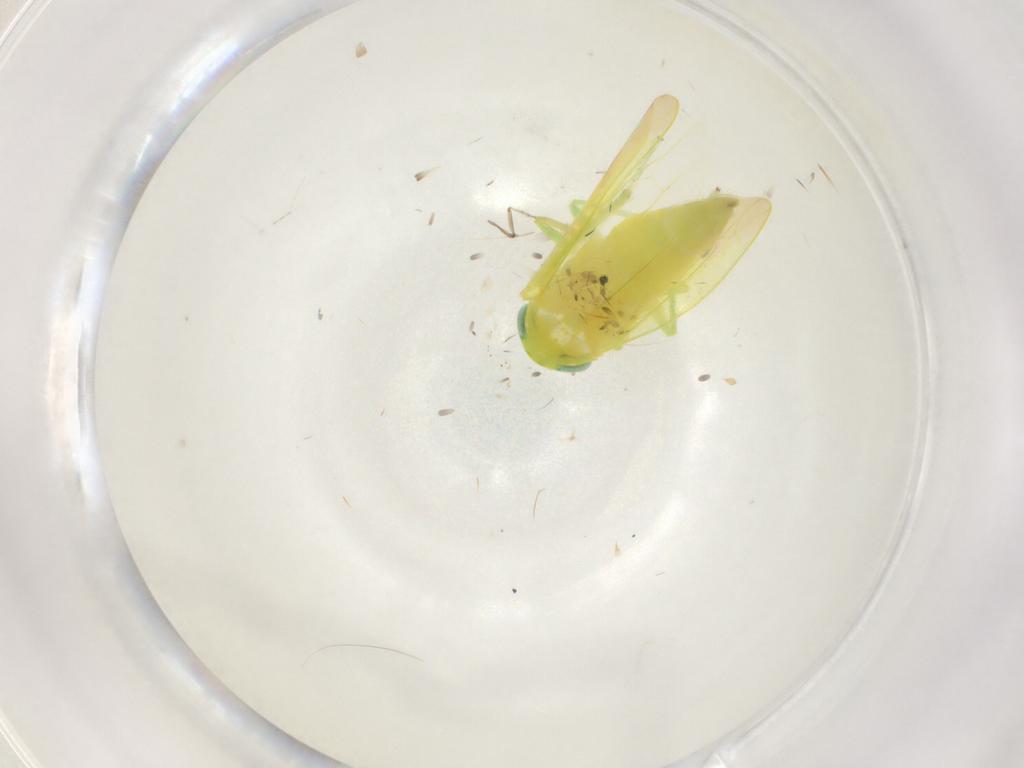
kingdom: Animalia
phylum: Arthropoda
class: Insecta
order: Hemiptera
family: Cicadellidae
